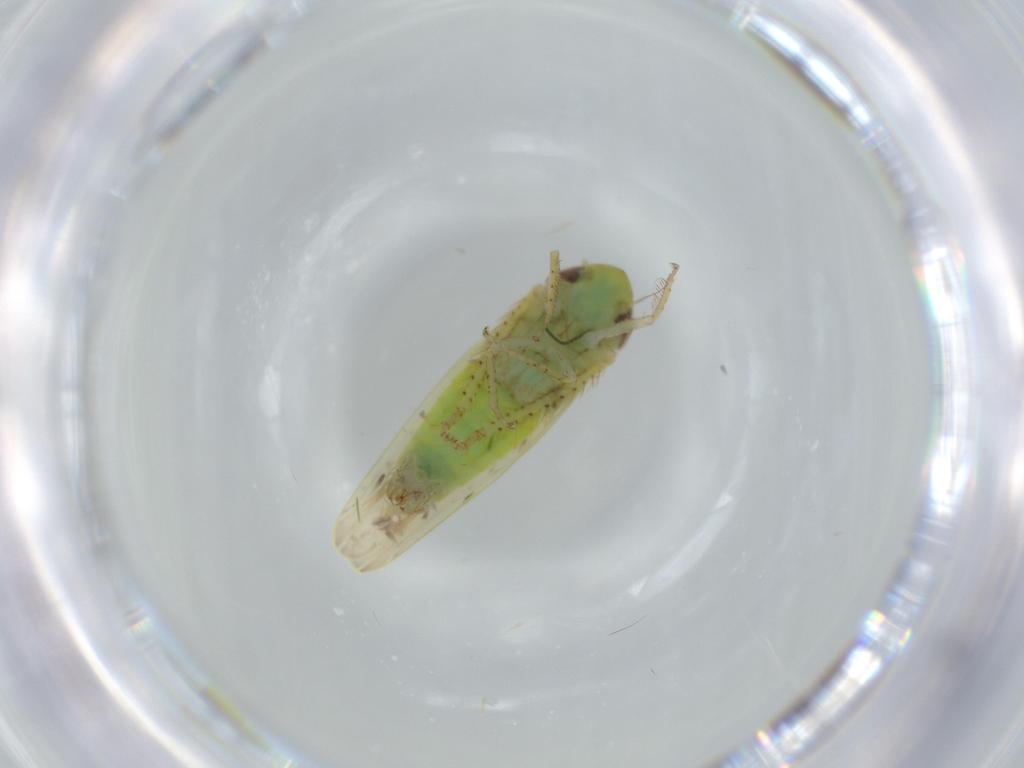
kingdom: Animalia
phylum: Arthropoda
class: Insecta
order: Hemiptera
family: Cicadellidae
